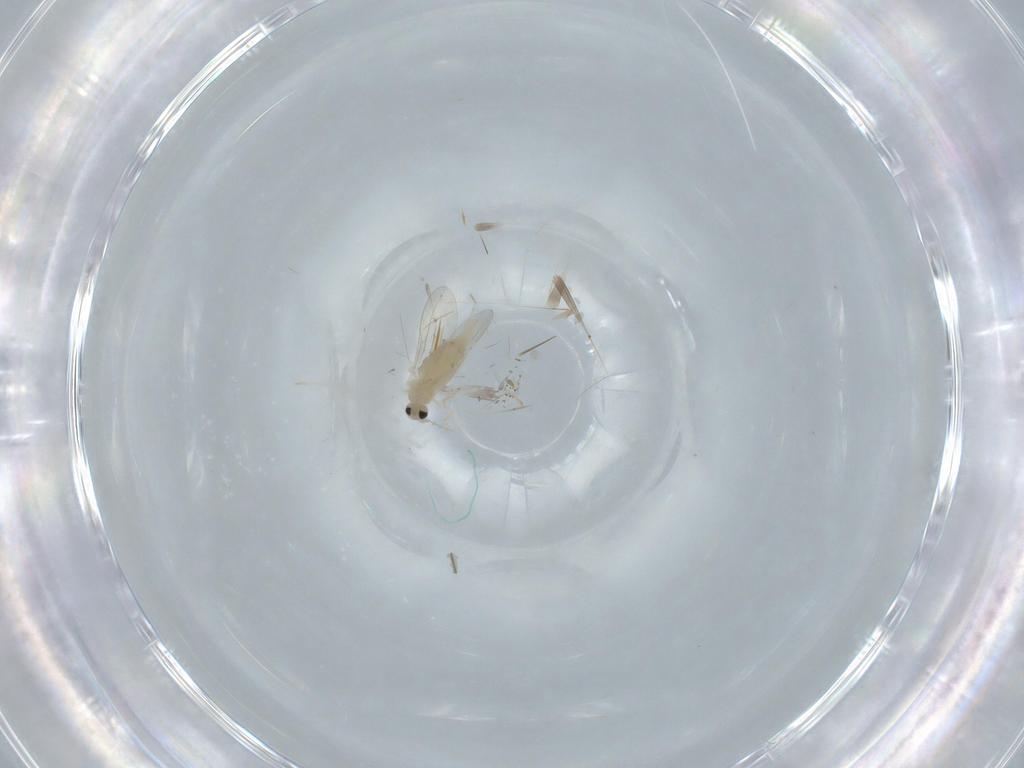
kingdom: Animalia
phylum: Arthropoda
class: Insecta
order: Diptera
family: Cecidomyiidae
